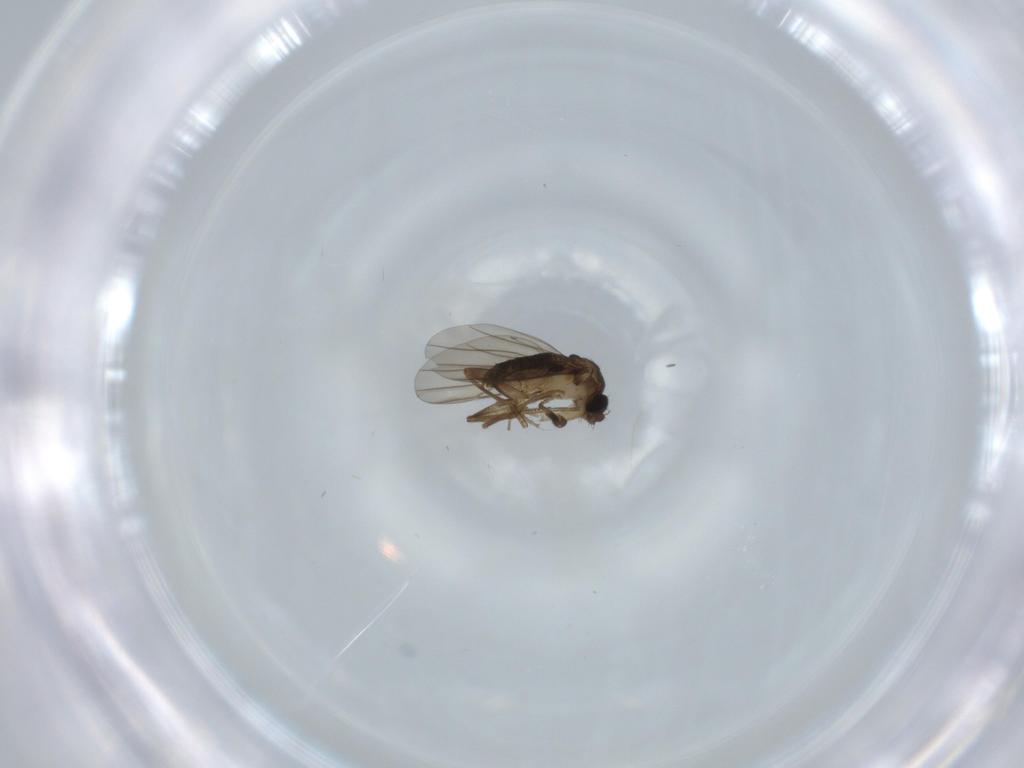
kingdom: Animalia
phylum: Arthropoda
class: Insecta
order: Diptera
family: Phoridae
